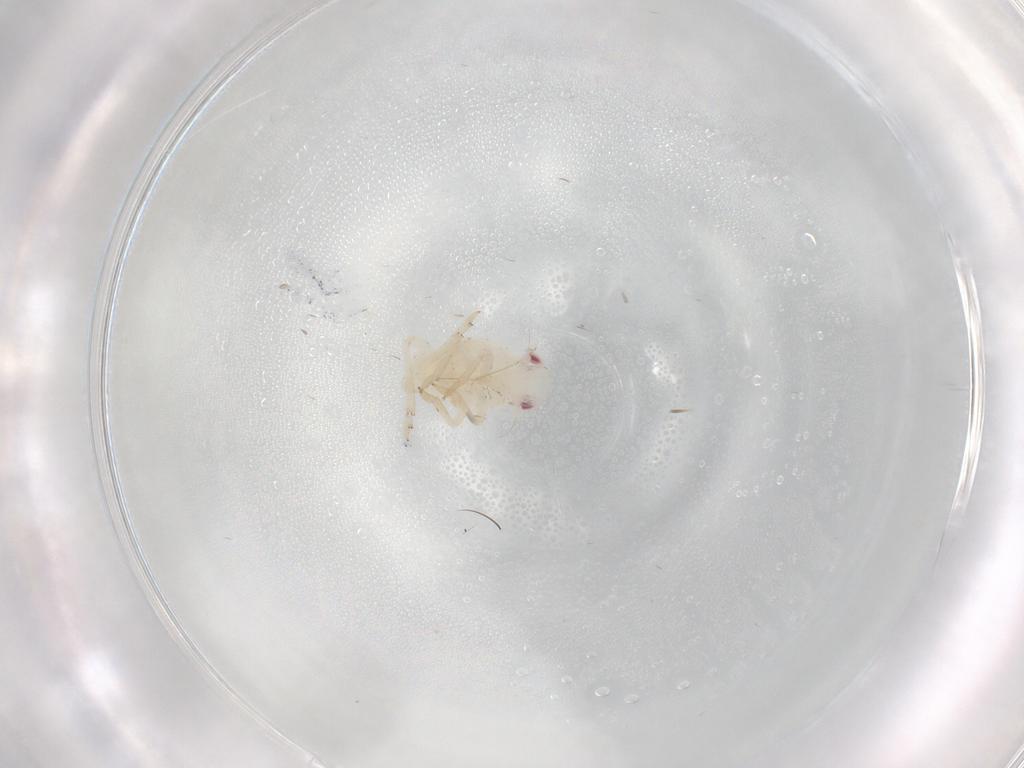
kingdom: Animalia
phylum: Arthropoda
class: Insecta
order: Hemiptera
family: Tropiduchidae
